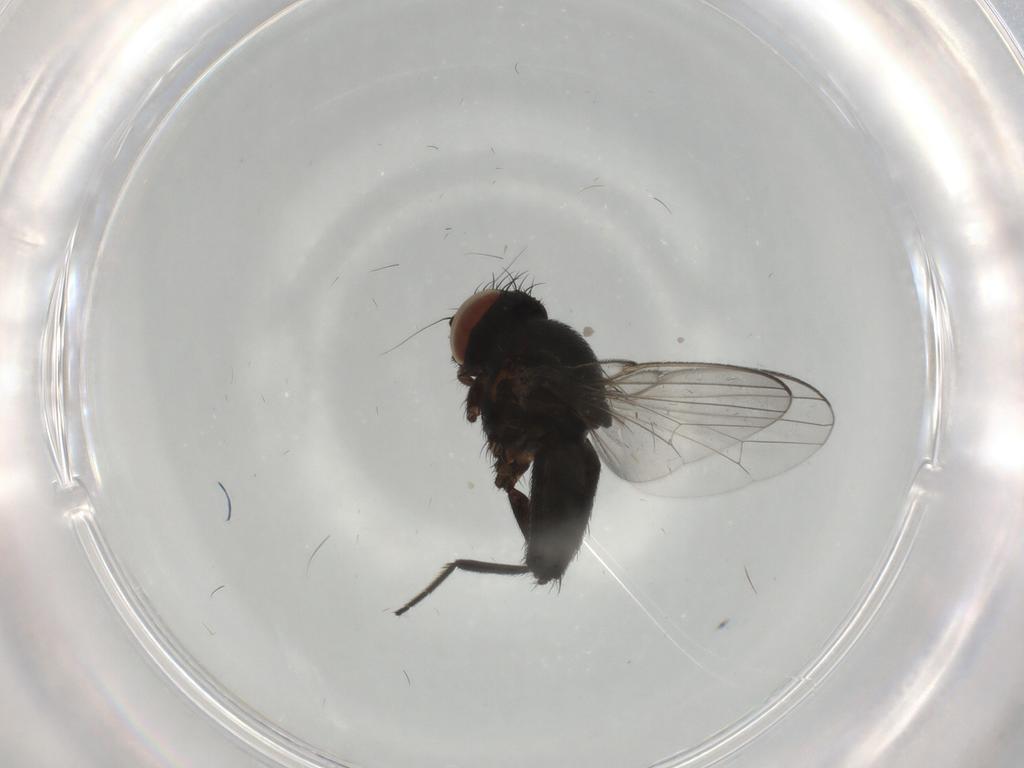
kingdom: Animalia
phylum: Arthropoda
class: Insecta
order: Diptera
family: Milichiidae
